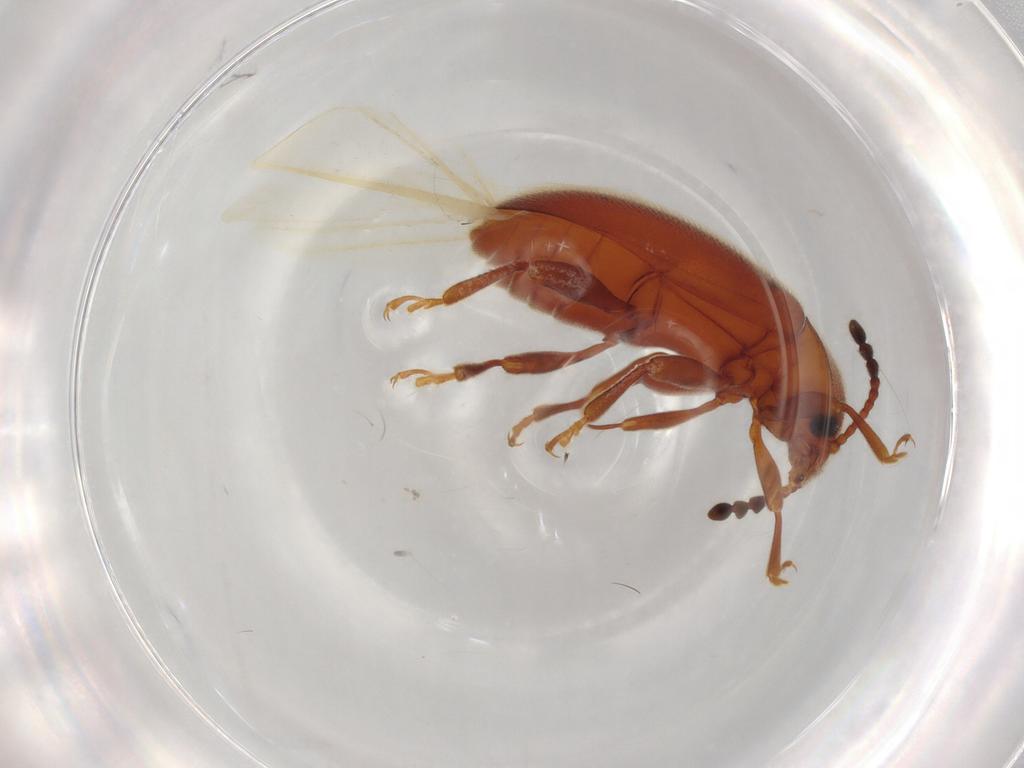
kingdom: Animalia
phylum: Arthropoda
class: Insecta
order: Coleoptera
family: Endomychidae
